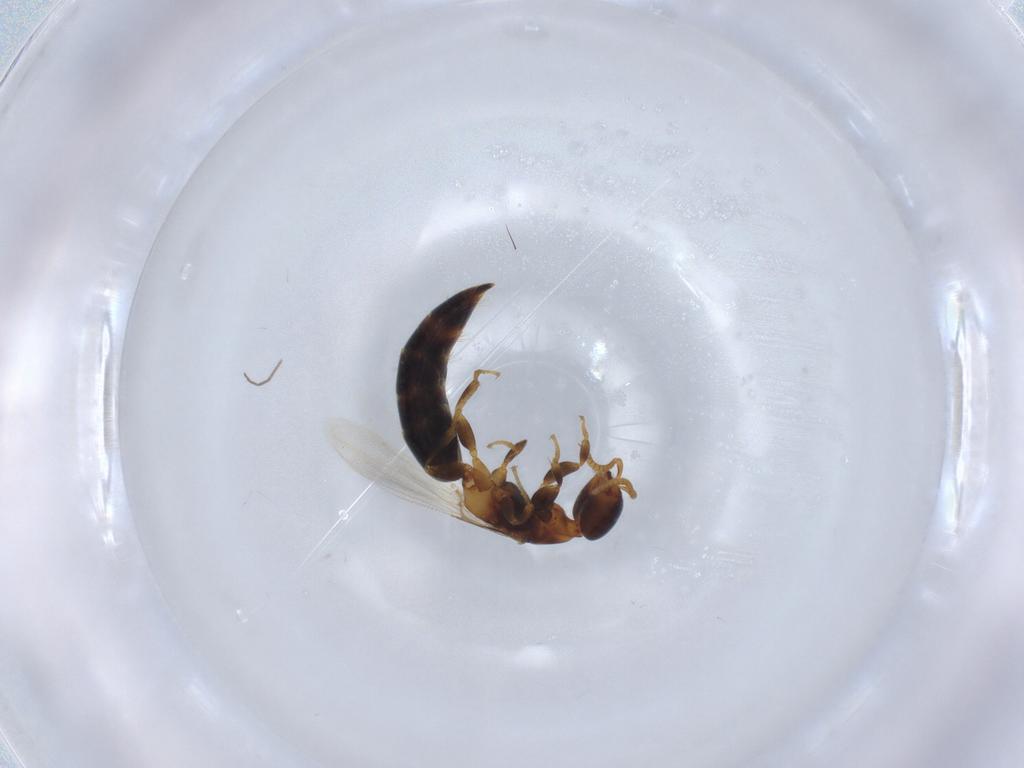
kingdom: Animalia
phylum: Arthropoda
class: Insecta
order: Hymenoptera
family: Bethylidae
